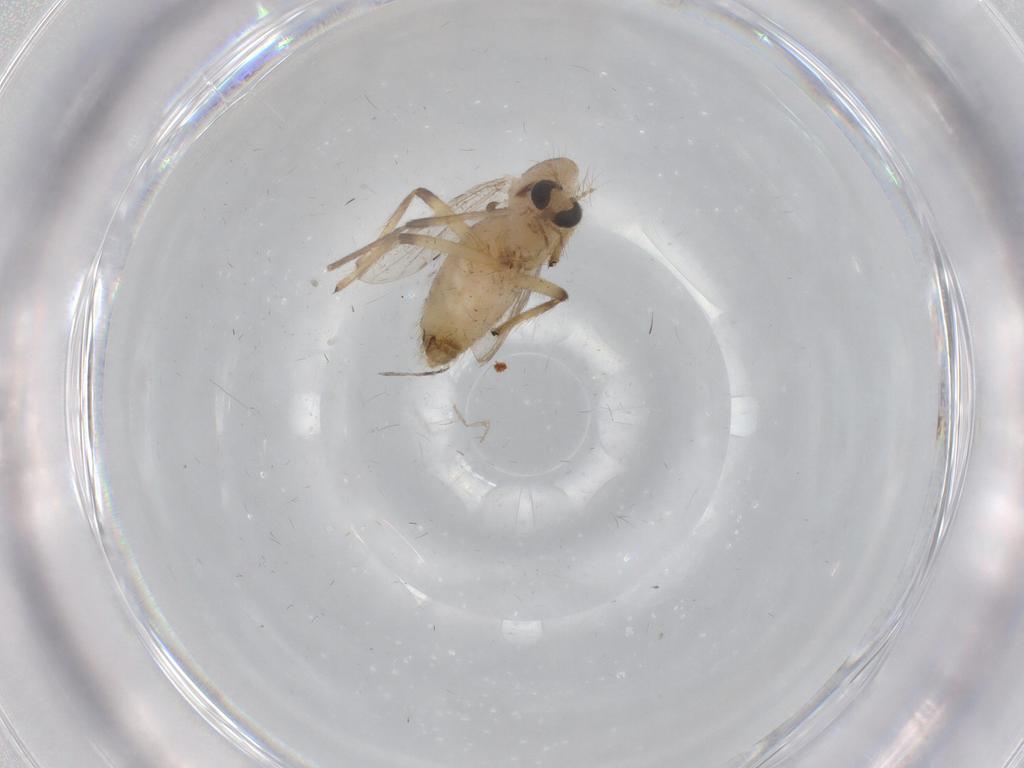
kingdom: Animalia
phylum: Arthropoda
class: Insecta
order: Diptera
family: Chironomidae
